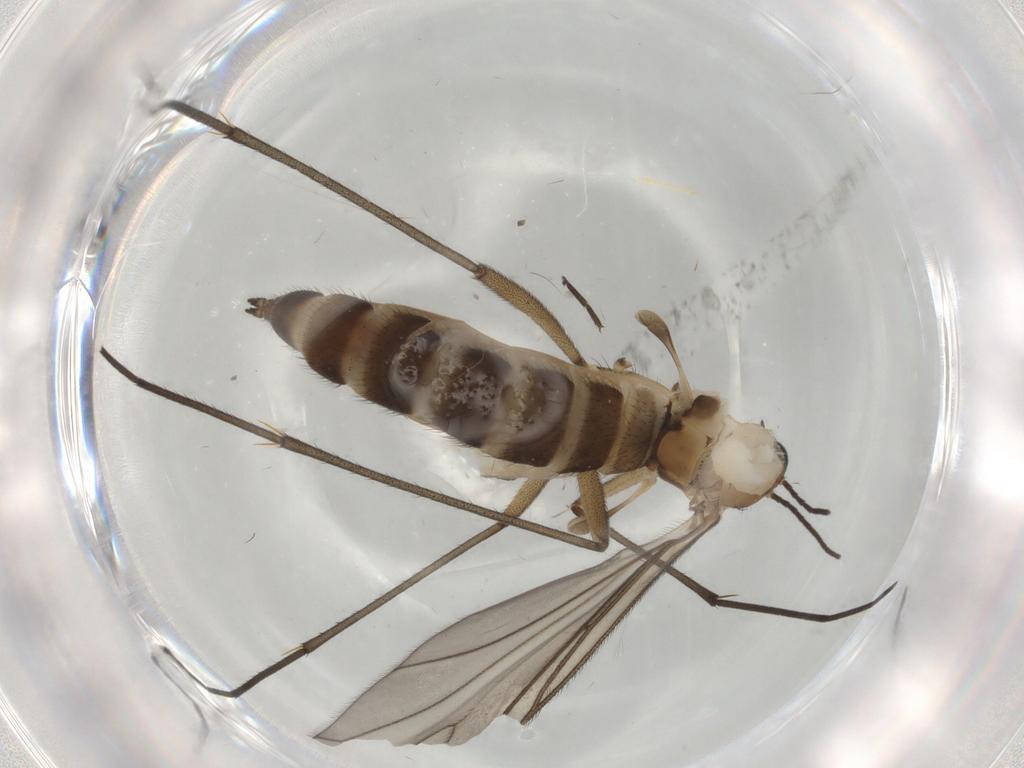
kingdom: Animalia
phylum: Arthropoda
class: Insecta
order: Diptera
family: Sciaridae
